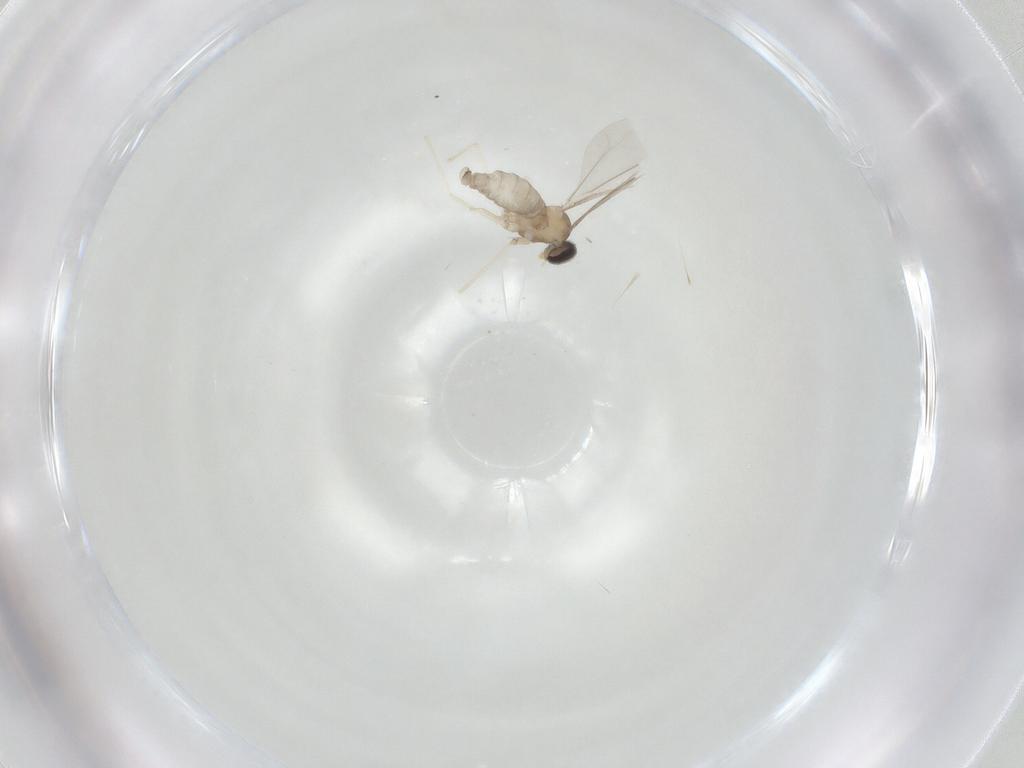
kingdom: Animalia
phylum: Arthropoda
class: Insecta
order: Diptera
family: Cecidomyiidae
